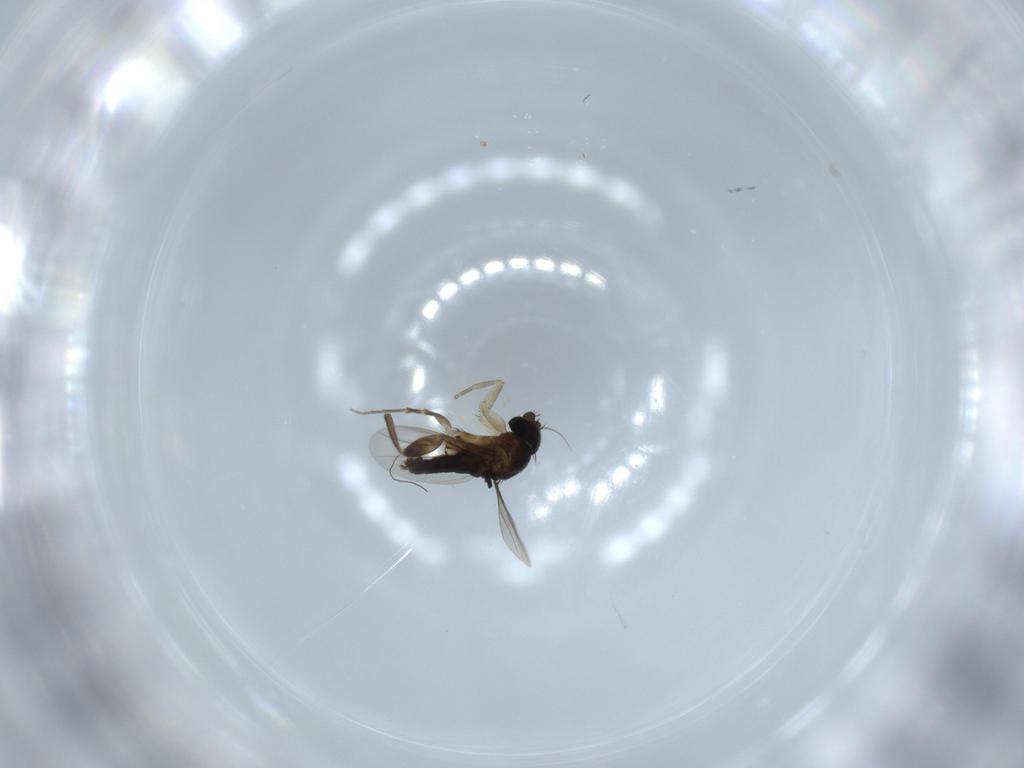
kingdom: Animalia
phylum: Arthropoda
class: Insecta
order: Diptera
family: Phoridae
